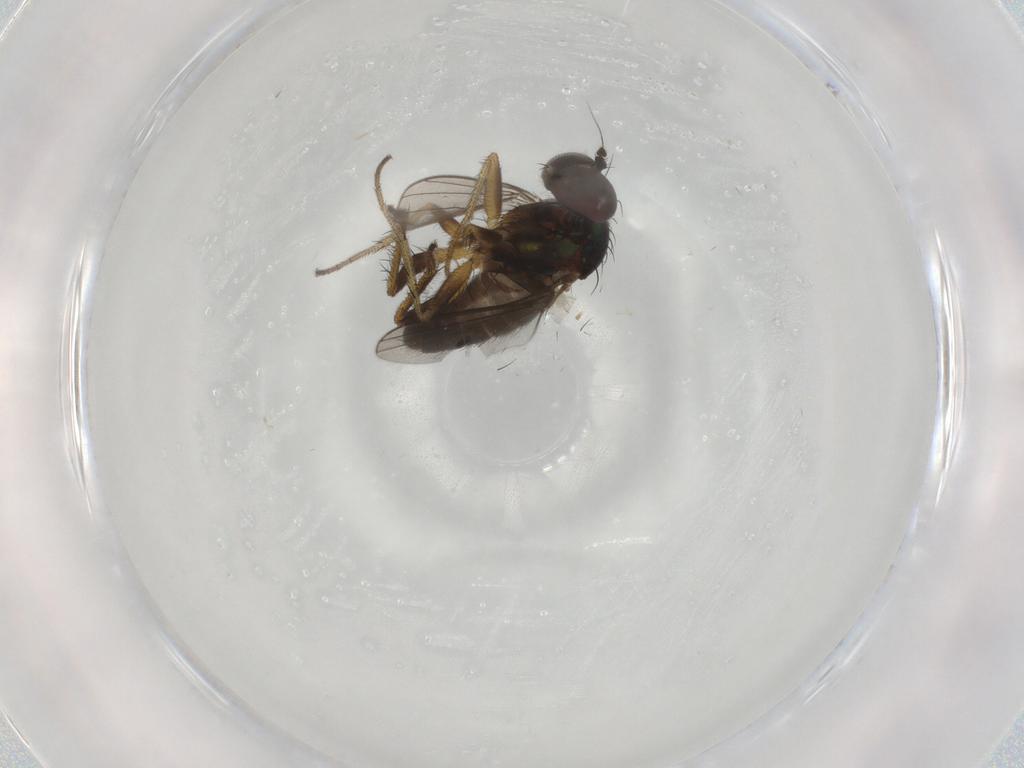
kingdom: Animalia
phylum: Arthropoda
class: Insecta
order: Diptera
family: Dolichopodidae
